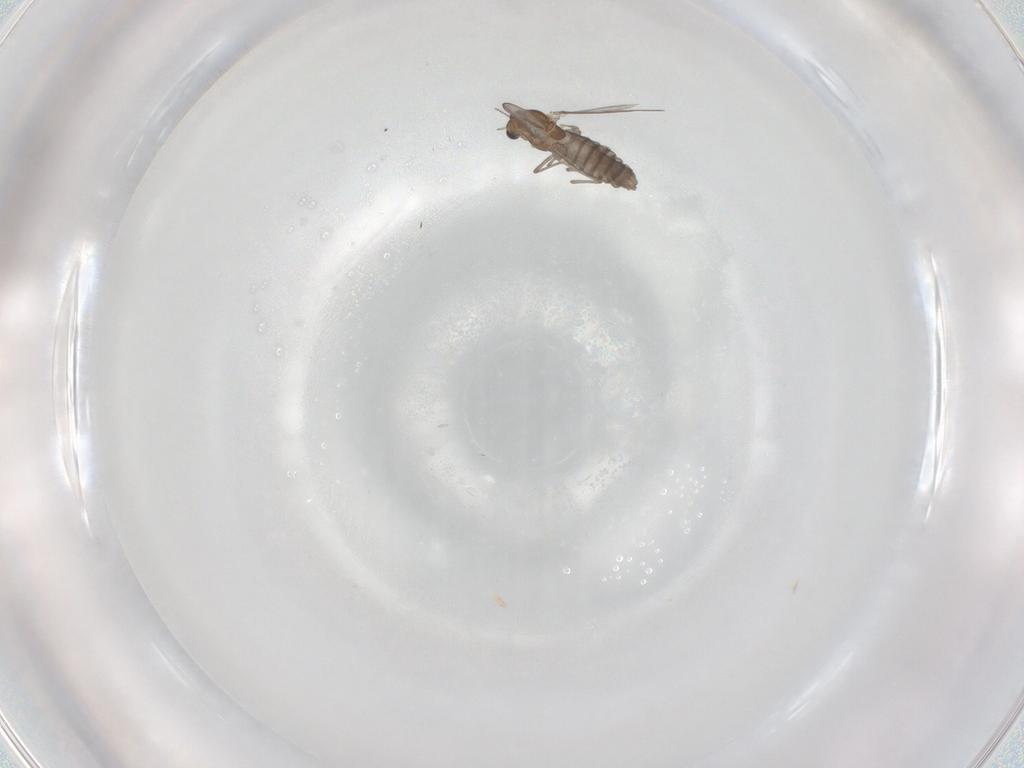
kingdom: Animalia
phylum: Arthropoda
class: Insecta
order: Diptera
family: Chironomidae
